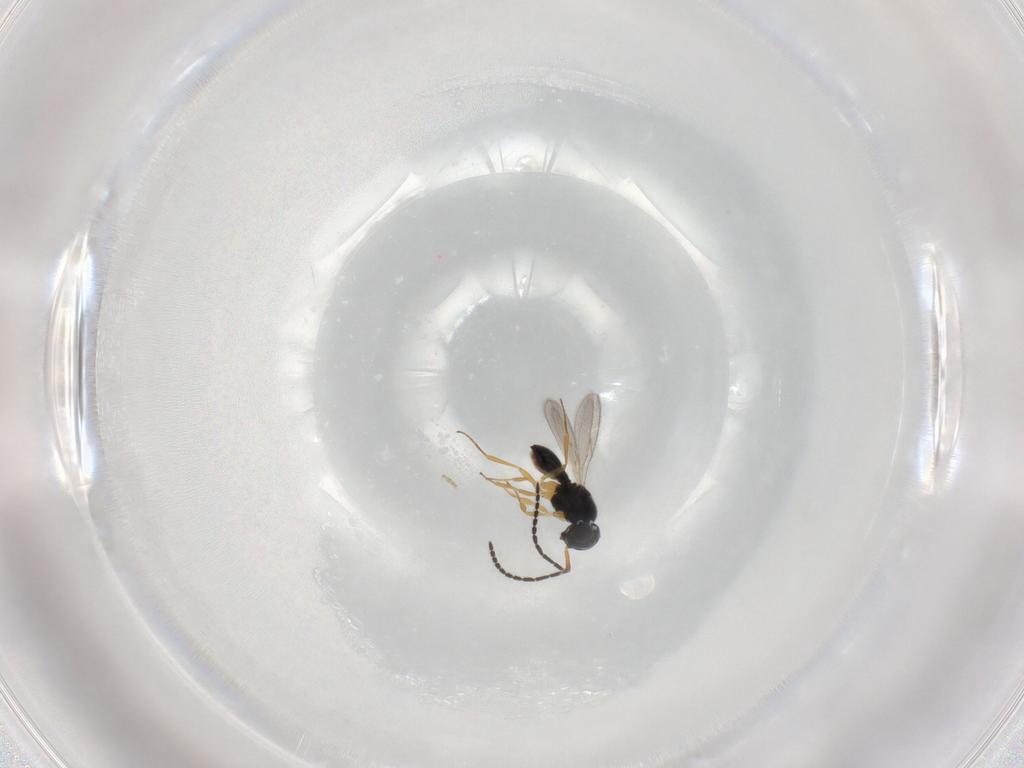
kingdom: Animalia
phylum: Arthropoda
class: Insecta
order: Hymenoptera
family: Scelionidae
